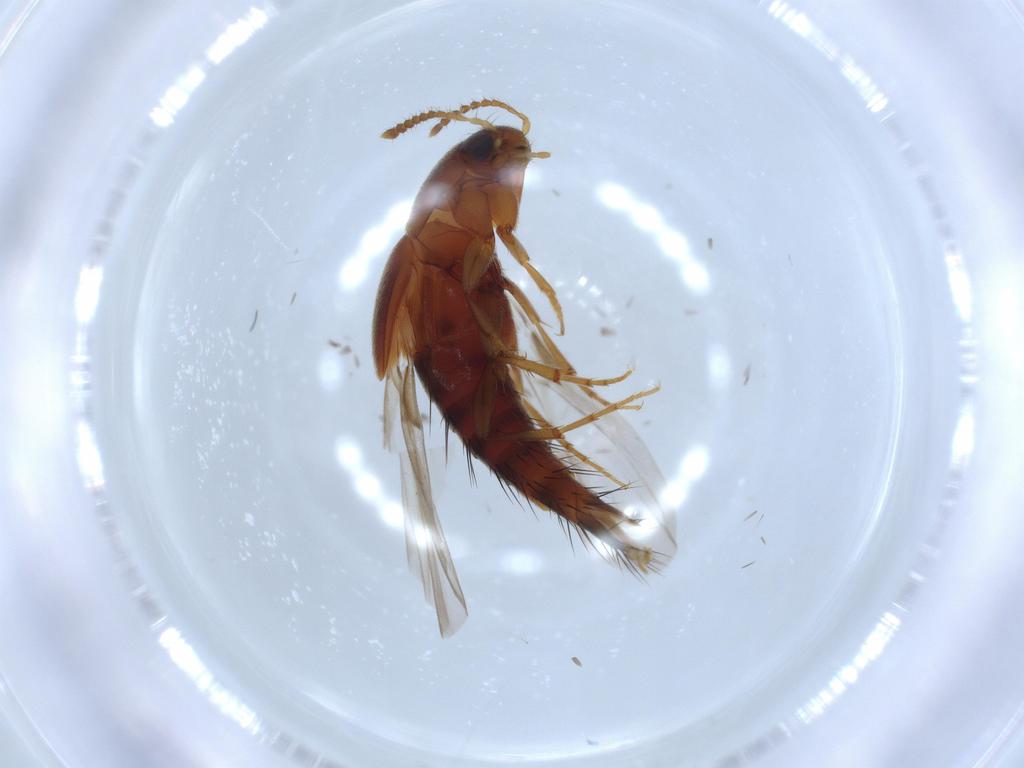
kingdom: Animalia
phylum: Arthropoda
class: Insecta
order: Coleoptera
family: Staphylinidae
